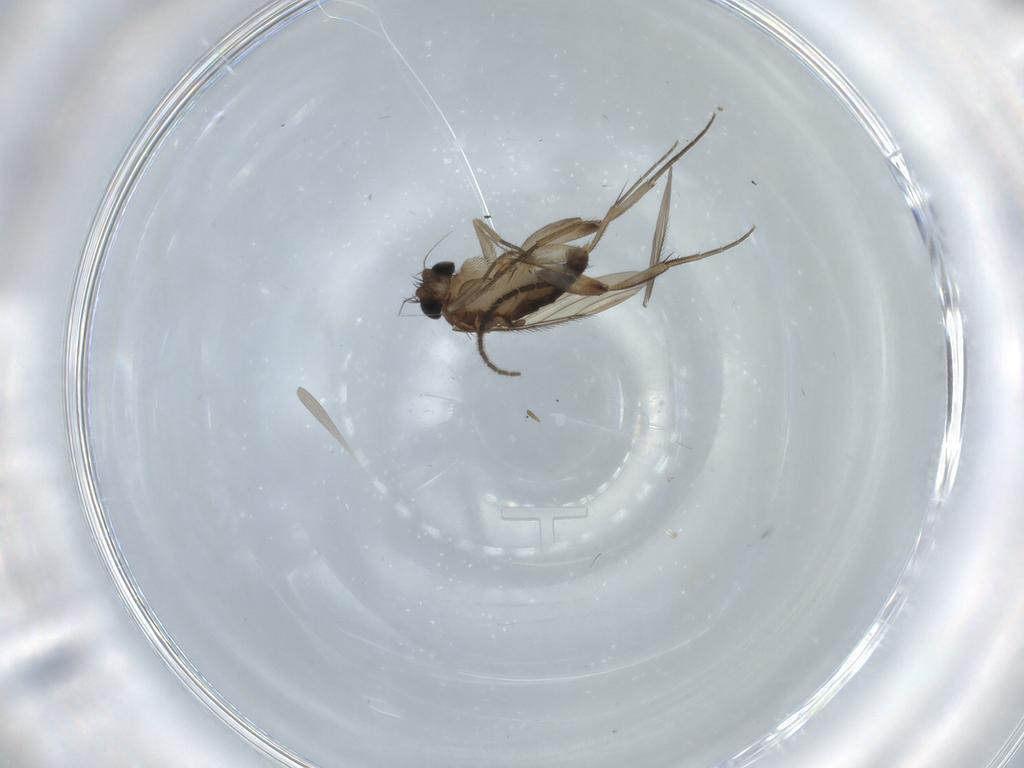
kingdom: Animalia
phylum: Arthropoda
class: Insecta
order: Diptera
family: Phoridae
